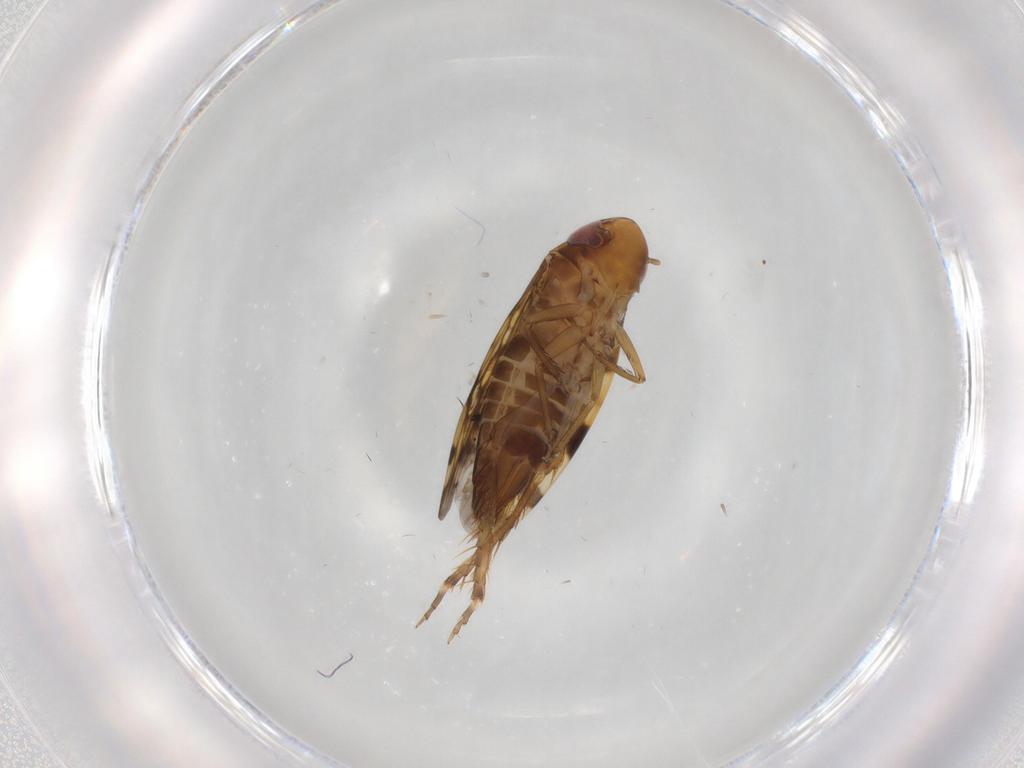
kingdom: Animalia
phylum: Arthropoda
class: Insecta
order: Hemiptera
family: Cicadellidae
